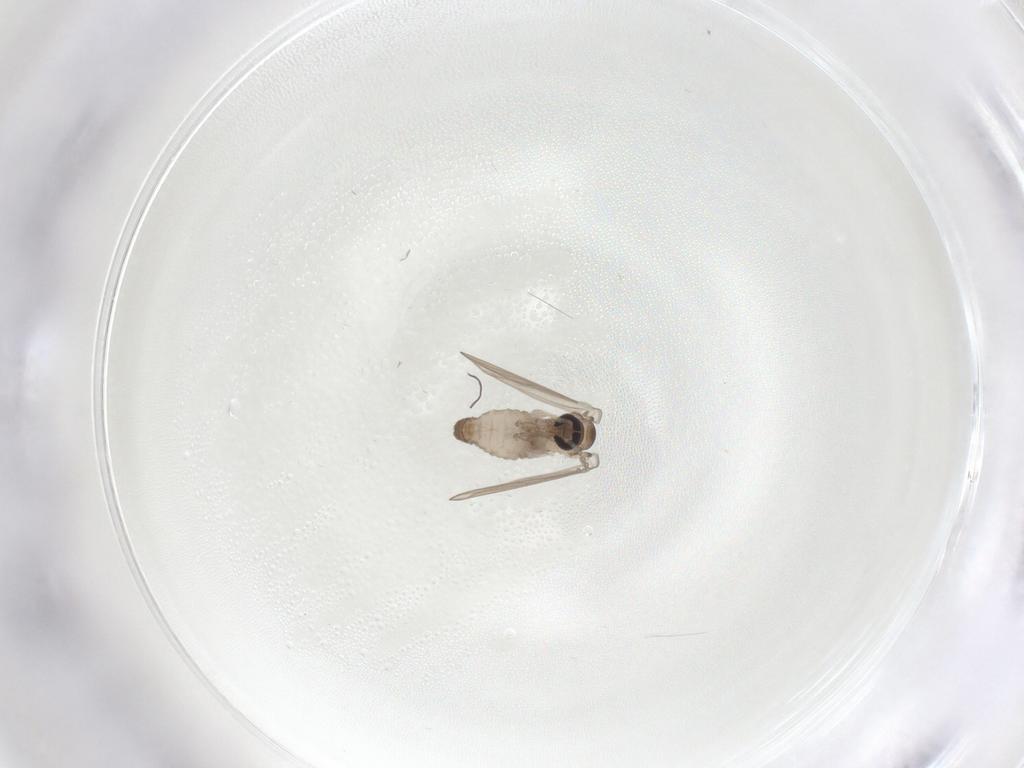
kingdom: Animalia
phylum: Arthropoda
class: Insecta
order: Diptera
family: Psychodidae
